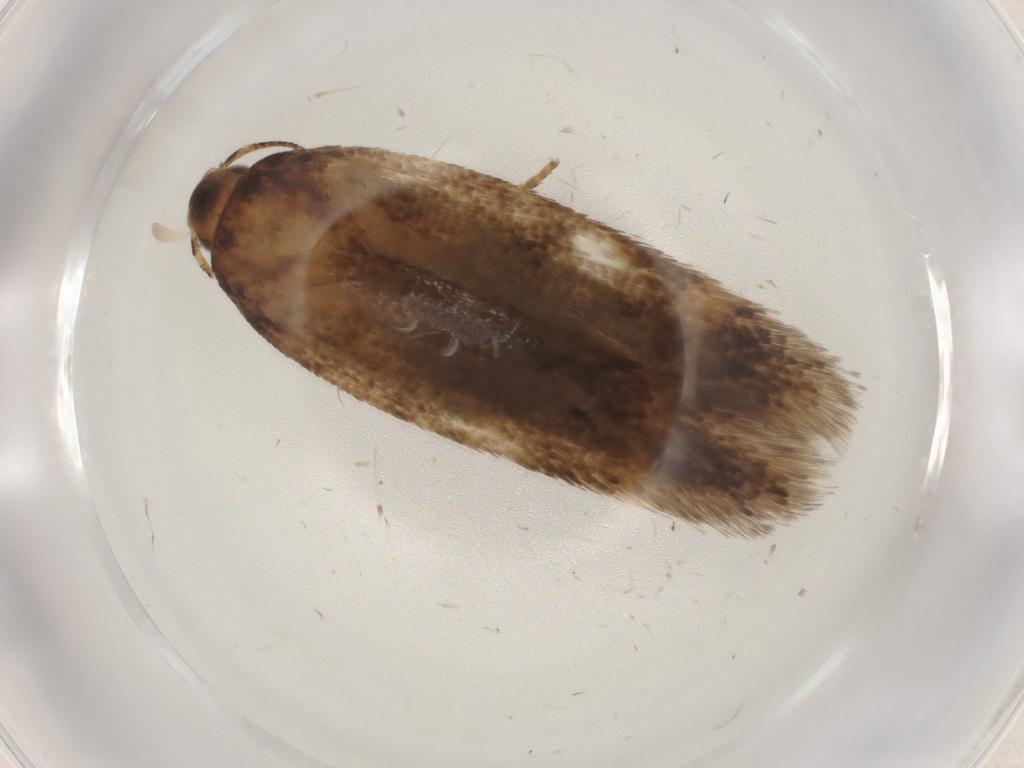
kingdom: Animalia
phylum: Arthropoda
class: Insecta
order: Lepidoptera
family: Gelechiidae
